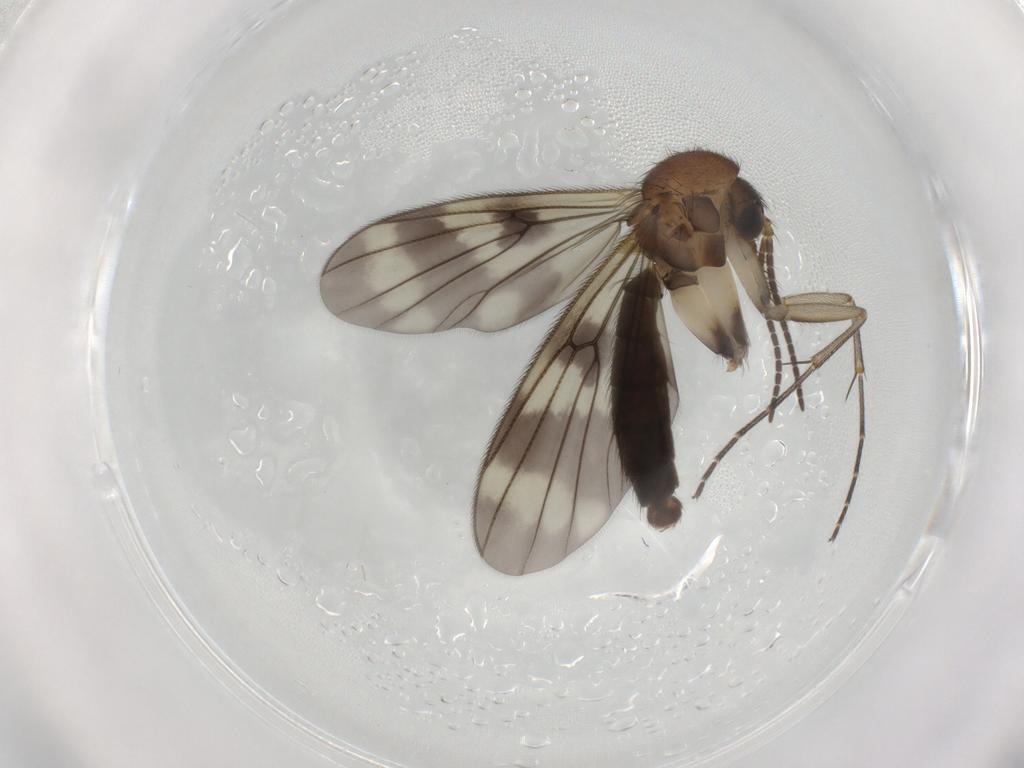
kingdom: Animalia
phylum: Arthropoda
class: Insecta
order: Diptera
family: Mycetophilidae
